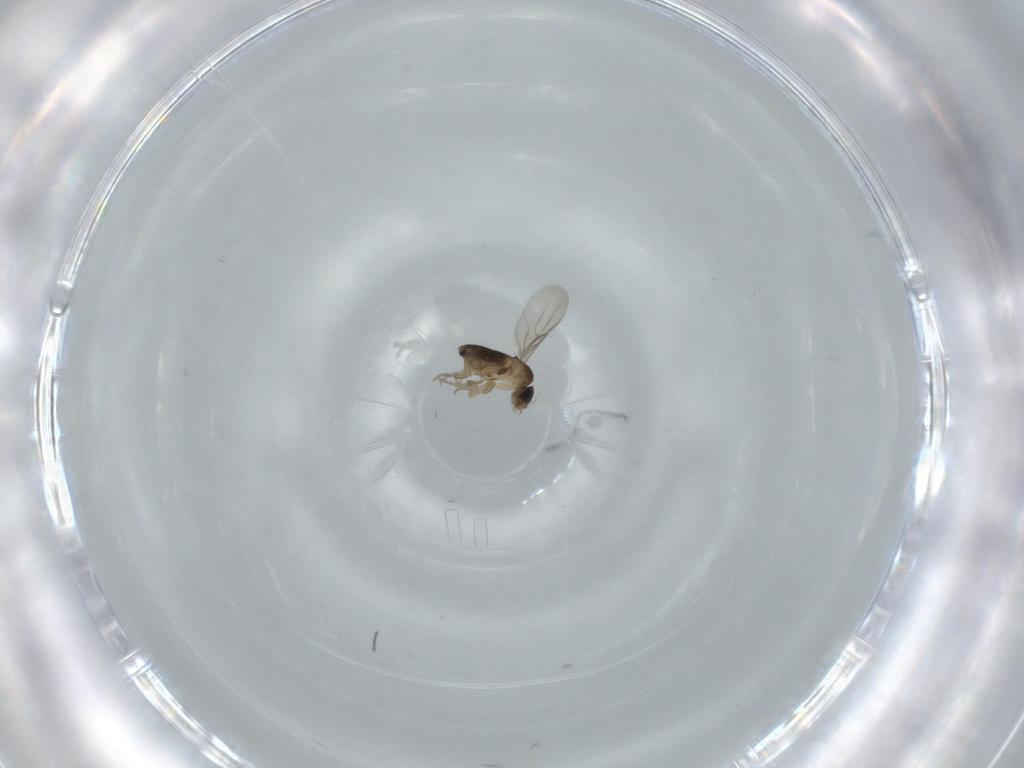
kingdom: Animalia
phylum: Arthropoda
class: Insecta
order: Diptera
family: Phoridae
